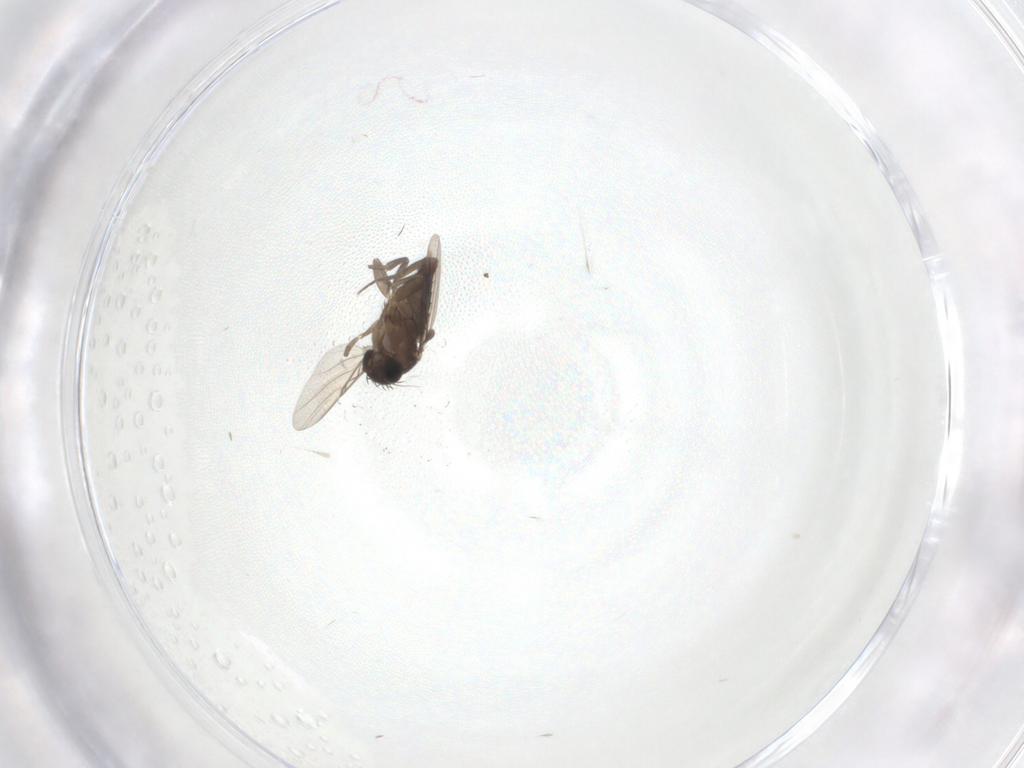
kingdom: Animalia
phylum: Arthropoda
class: Insecta
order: Diptera
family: Phoridae
